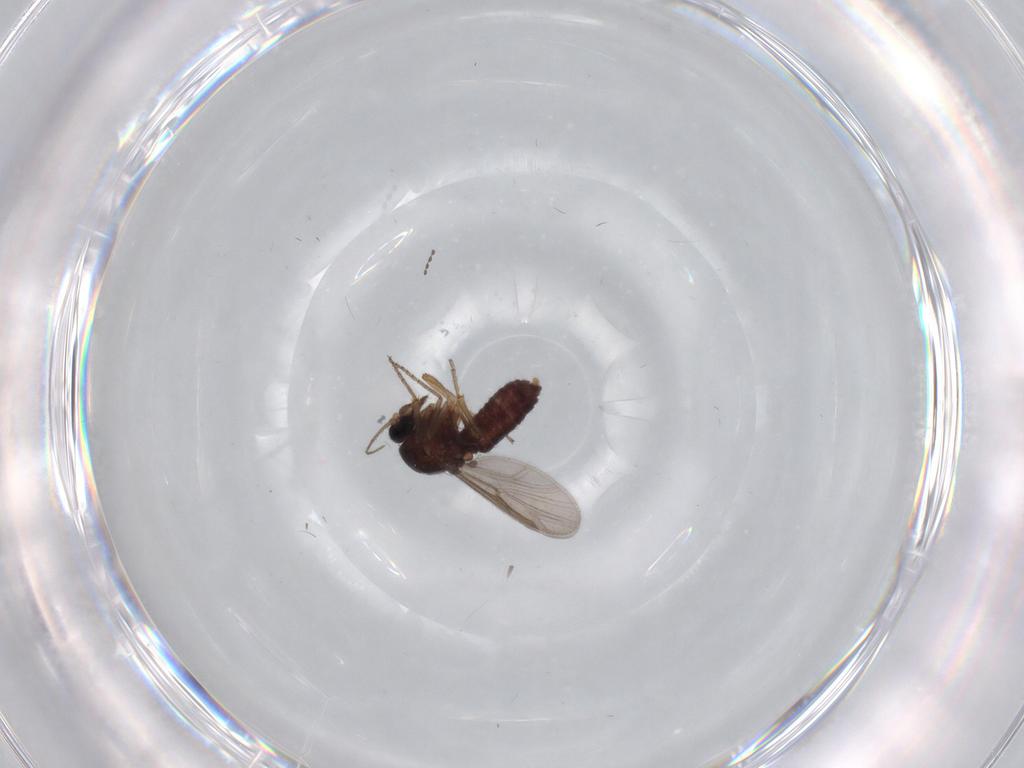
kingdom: Animalia
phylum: Arthropoda
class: Insecta
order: Diptera
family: Ceratopogonidae
